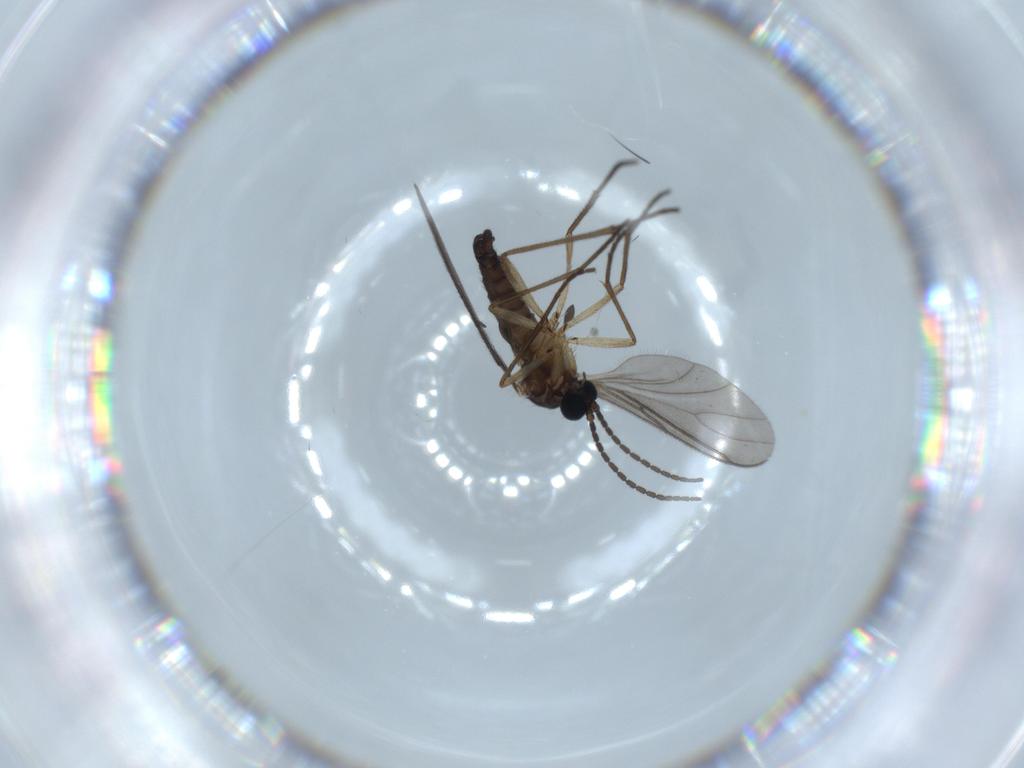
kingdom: Animalia
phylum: Arthropoda
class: Insecta
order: Diptera
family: Sciaridae
